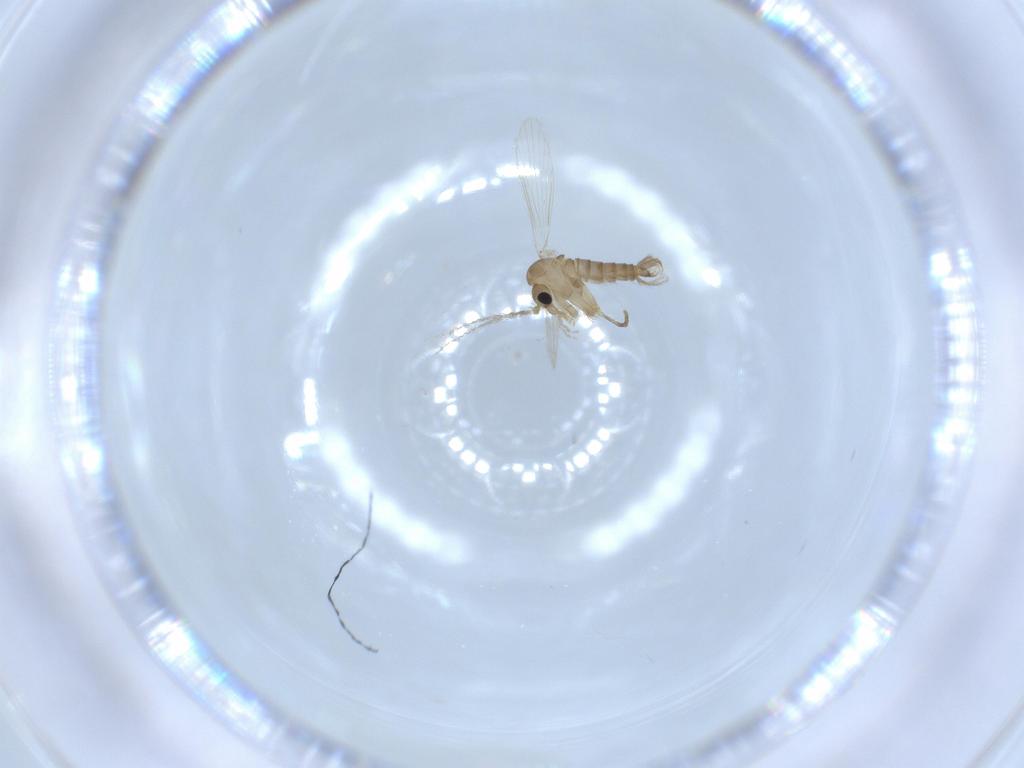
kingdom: Animalia
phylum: Arthropoda
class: Insecta
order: Diptera
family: Psychodidae
